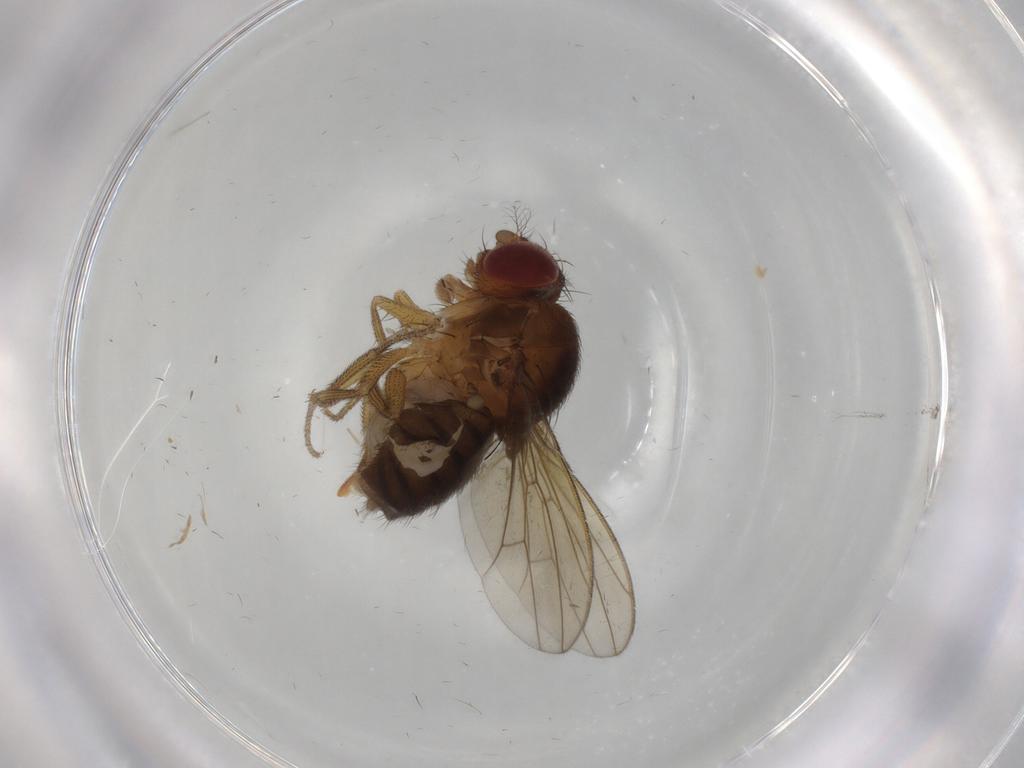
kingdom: Animalia
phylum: Arthropoda
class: Insecta
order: Diptera
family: Drosophilidae
